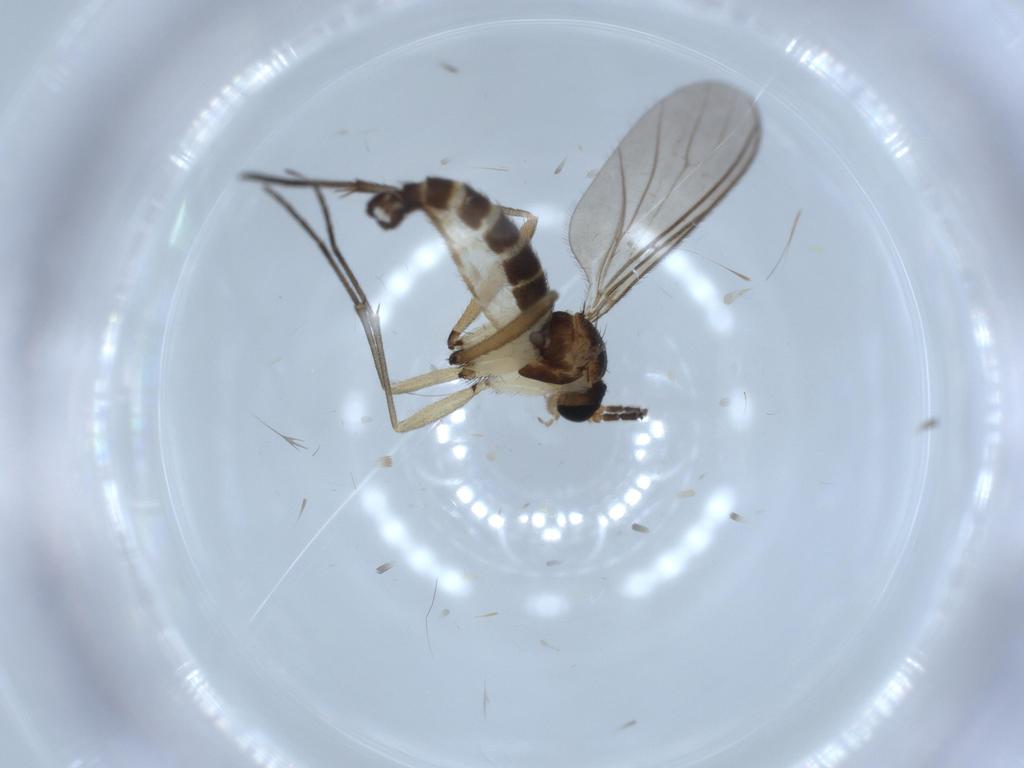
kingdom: Animalia
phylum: Arthropoda
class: Insecta
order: Diptera
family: Sciaridae
